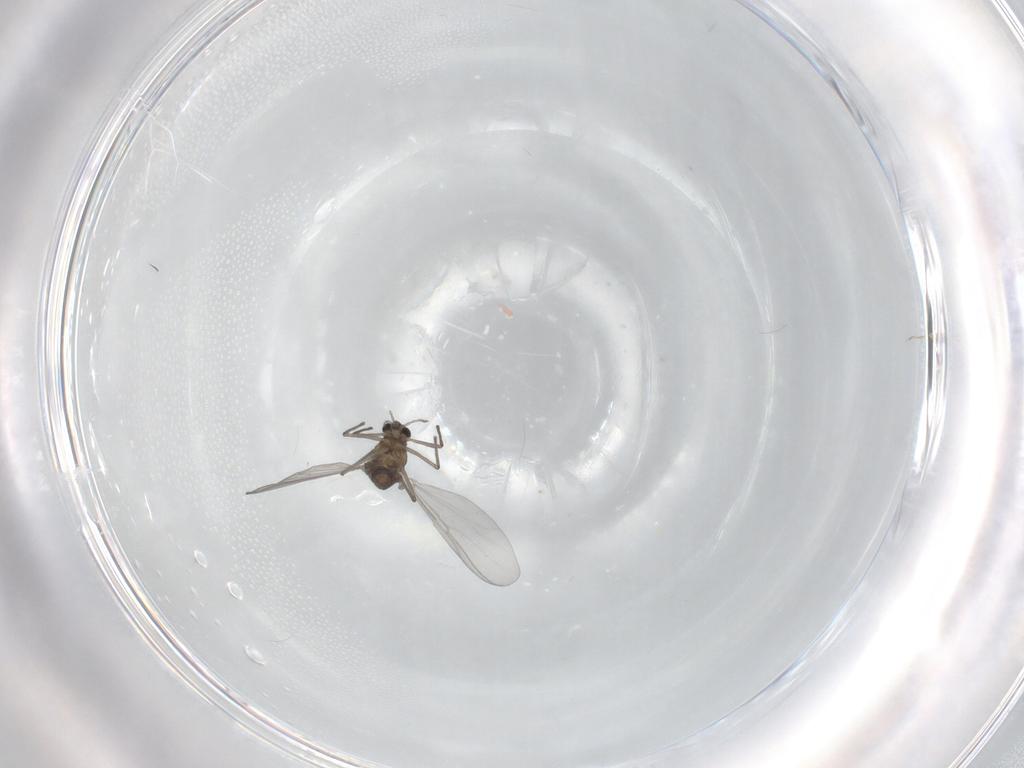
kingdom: Animalia
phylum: Arthropoda
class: Insecta
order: Diptera
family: Chironomidae
